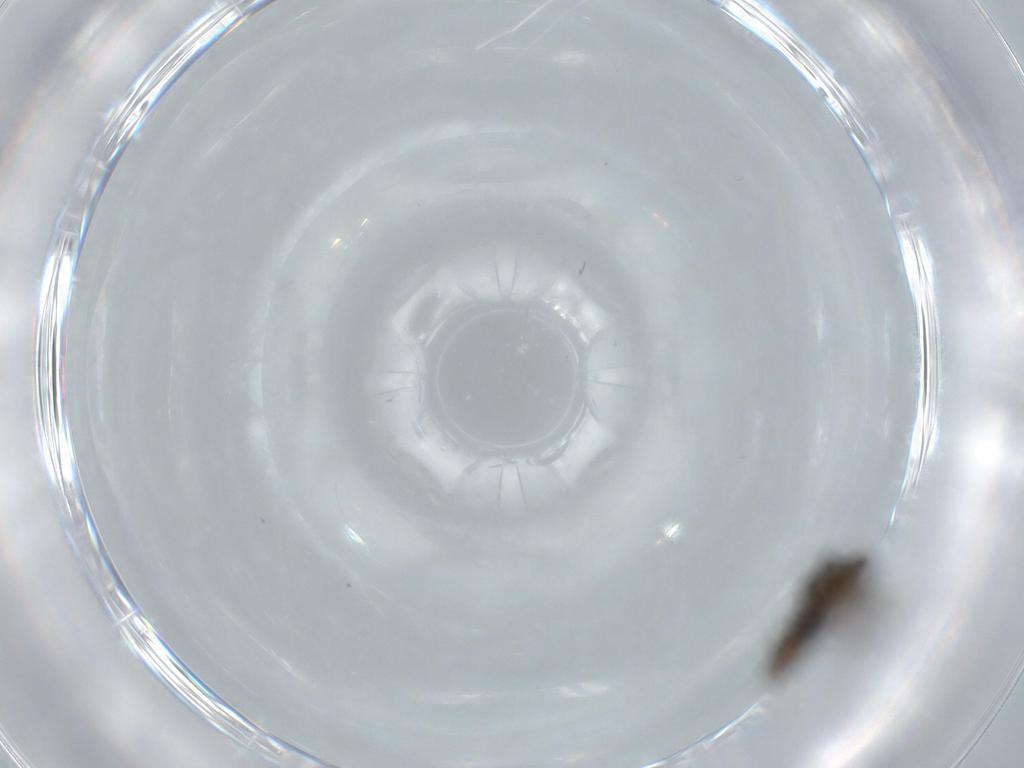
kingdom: Animalia
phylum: Arthropoda
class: Insecta
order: Diptera
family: Psychodidae
